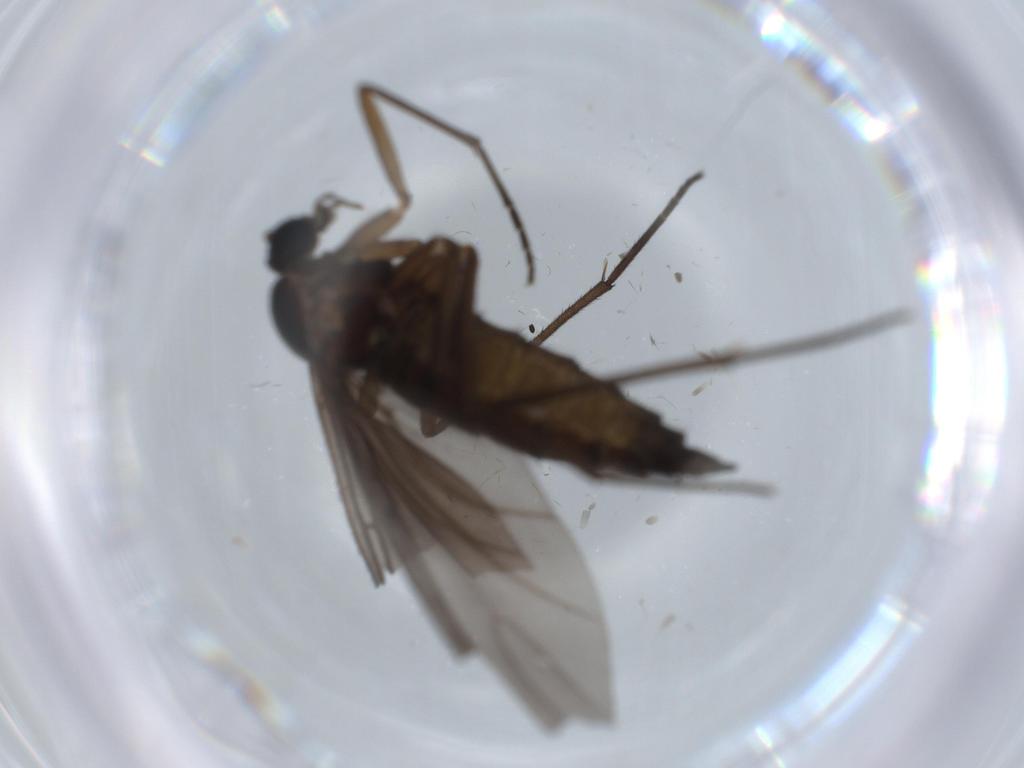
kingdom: Animalia
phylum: Arthropoda
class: Insecta
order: Diptera
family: Sciaridae
